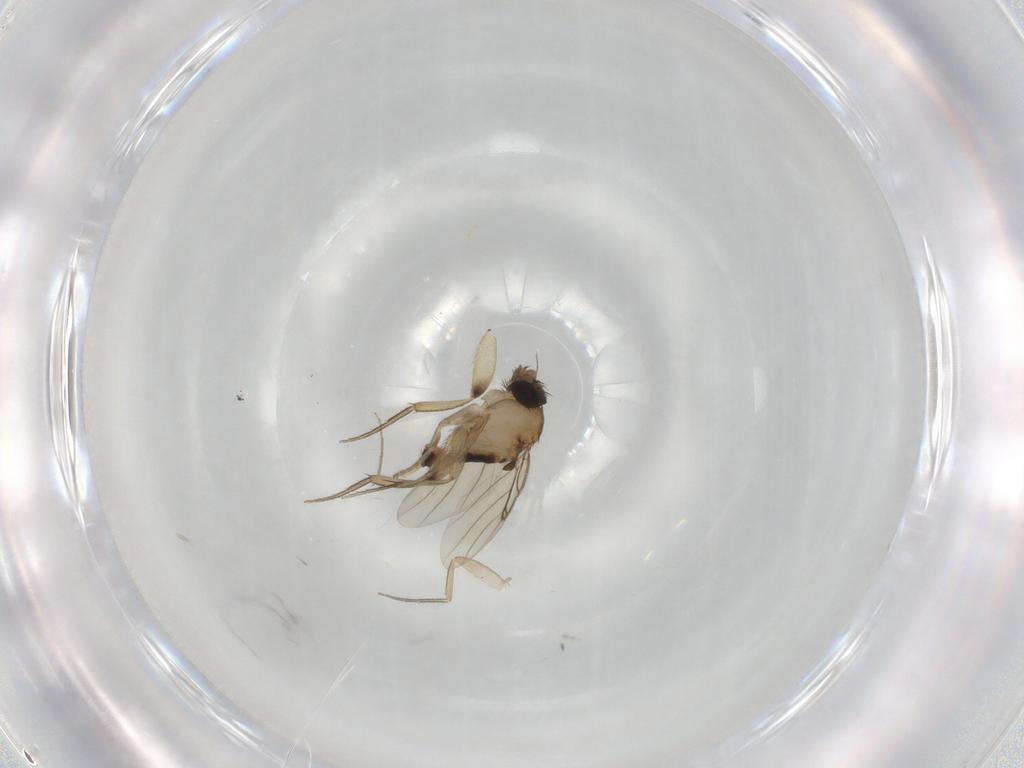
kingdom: Animalia
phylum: Arthropoda
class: Insecta
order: Diptera
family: Phoridae
